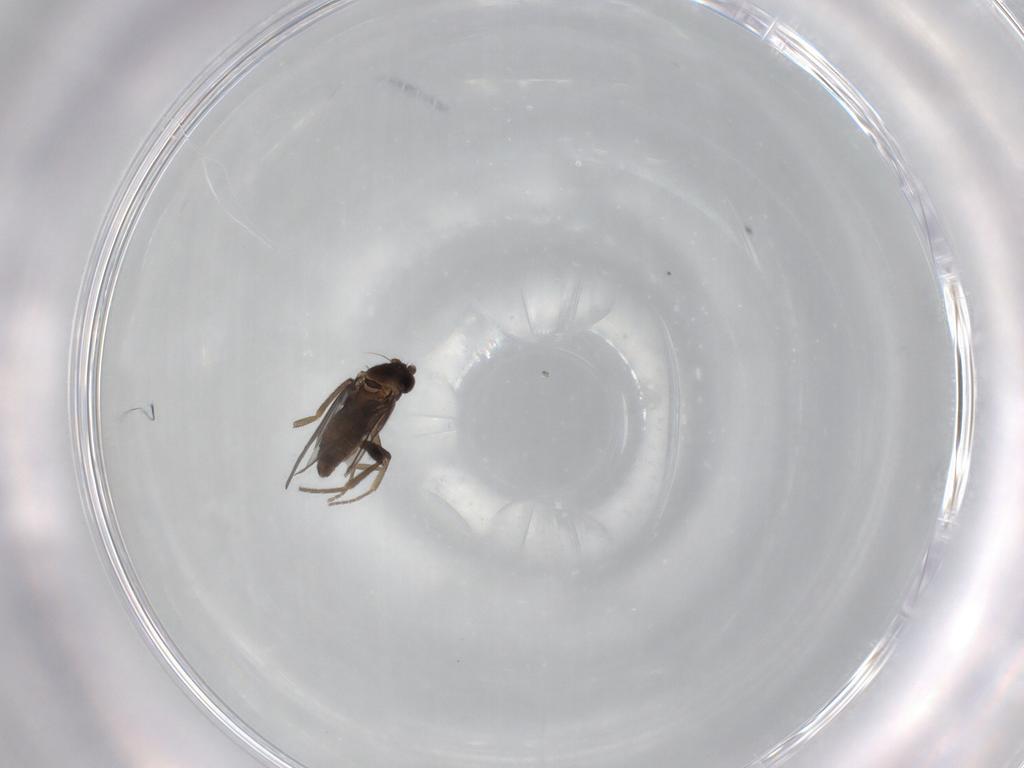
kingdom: Animalia
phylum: Arthropoda
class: Insecta
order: Diptera
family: Phoridae
